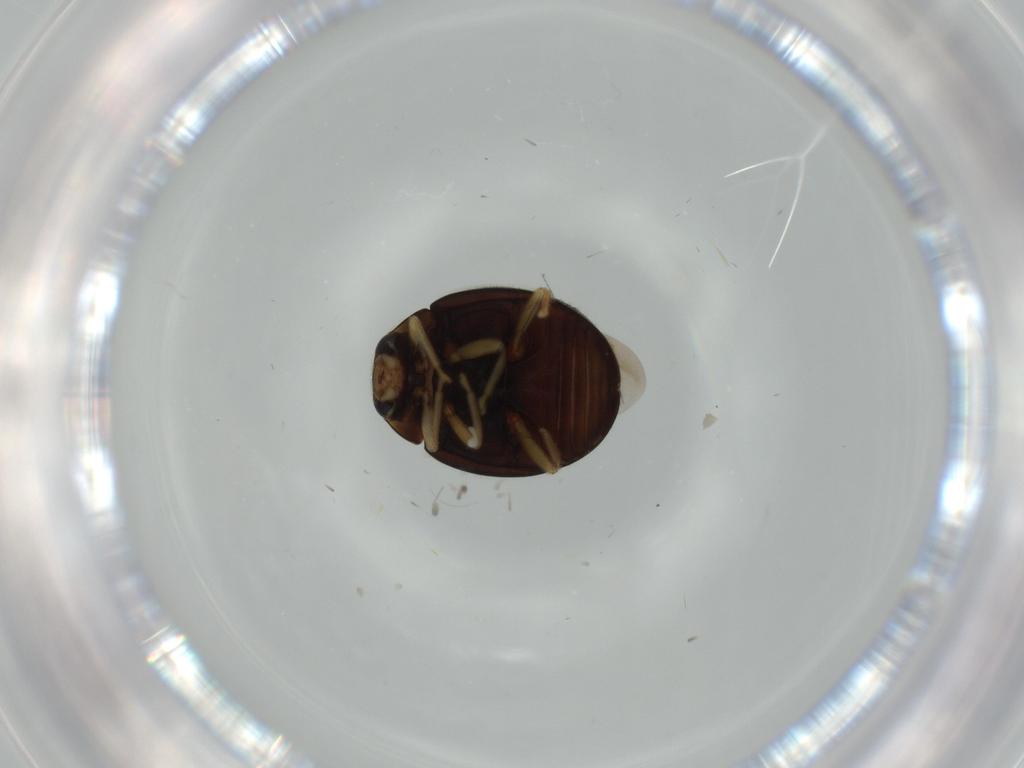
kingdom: Animalia
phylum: Arthropoda
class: Insecta
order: Coleoptera
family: Coccinellidae
